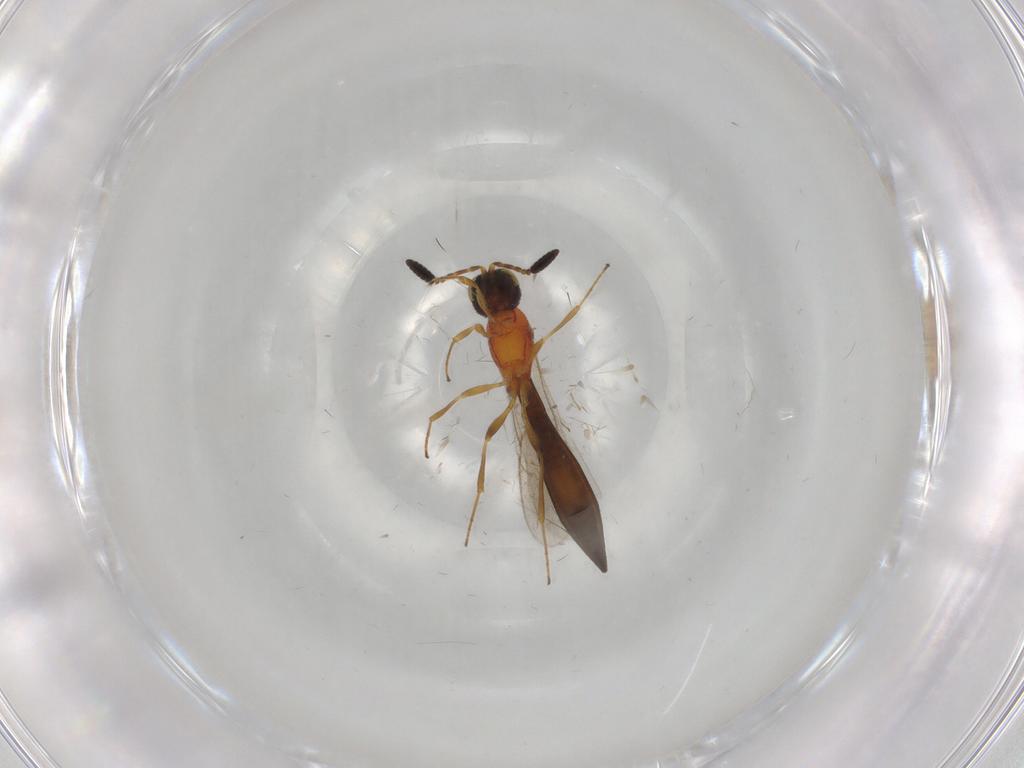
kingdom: Animalia
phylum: Arthropoda
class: Insecta
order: Hymenoptera
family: Scelionidae
